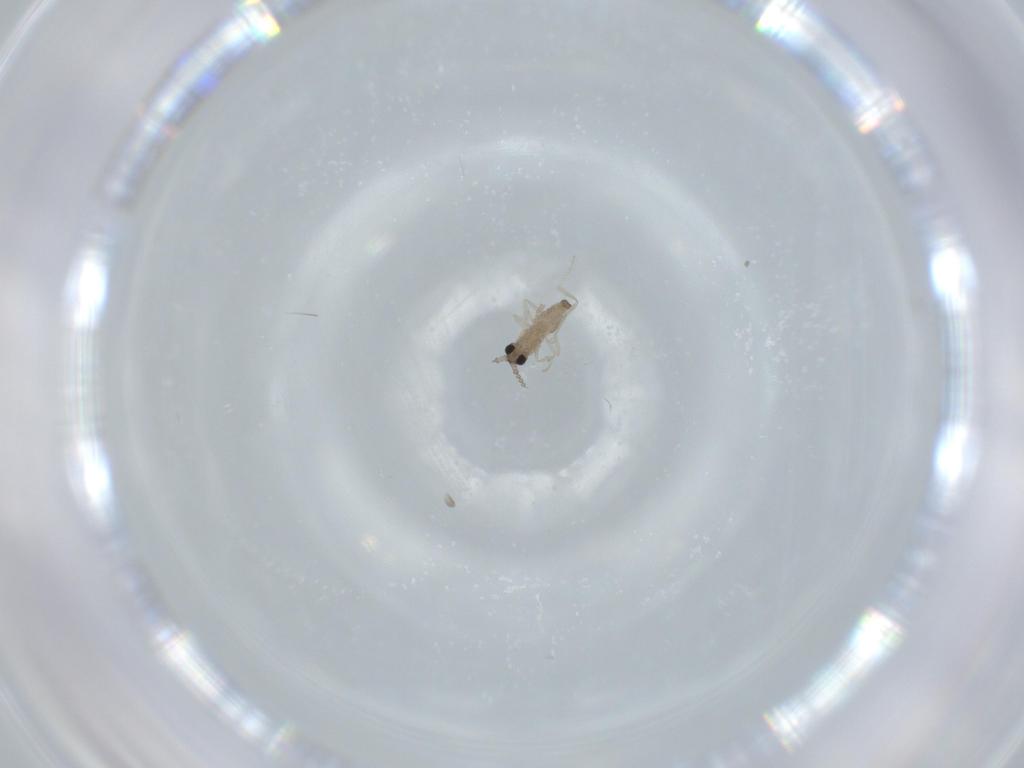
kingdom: Animalia
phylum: Arthropoda
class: Insecta
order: Diptera
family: Cecidomyiidae
